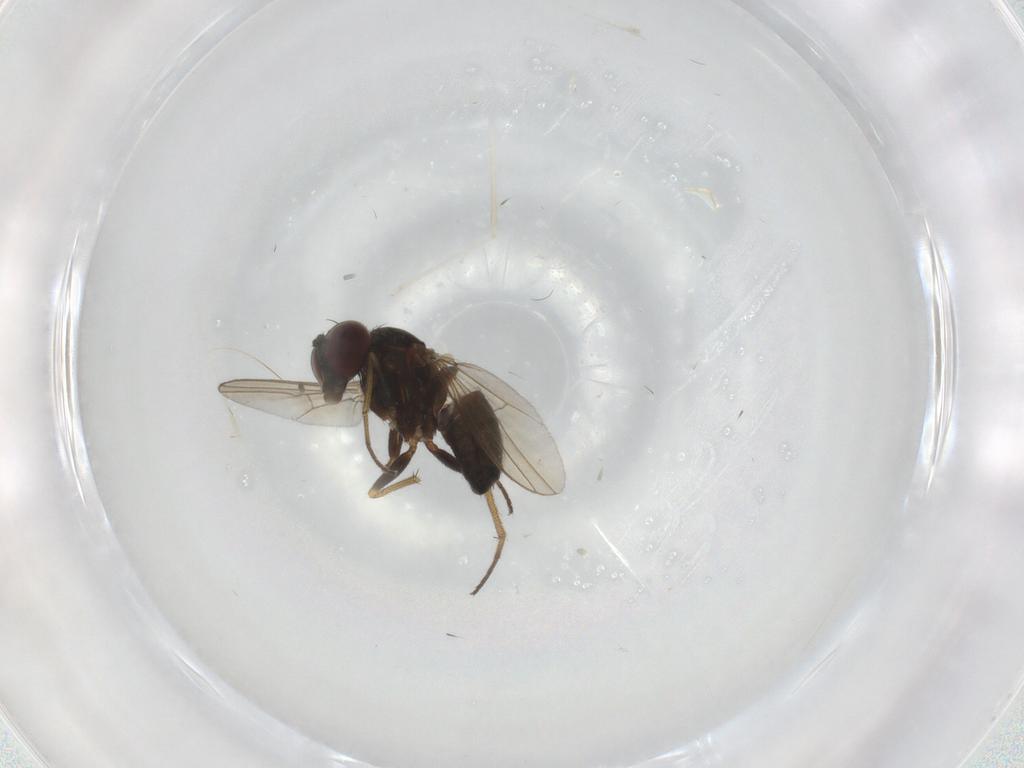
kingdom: Animalia
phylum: Arthropoda
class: Insecta
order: Diptera
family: Dolichopodidae
